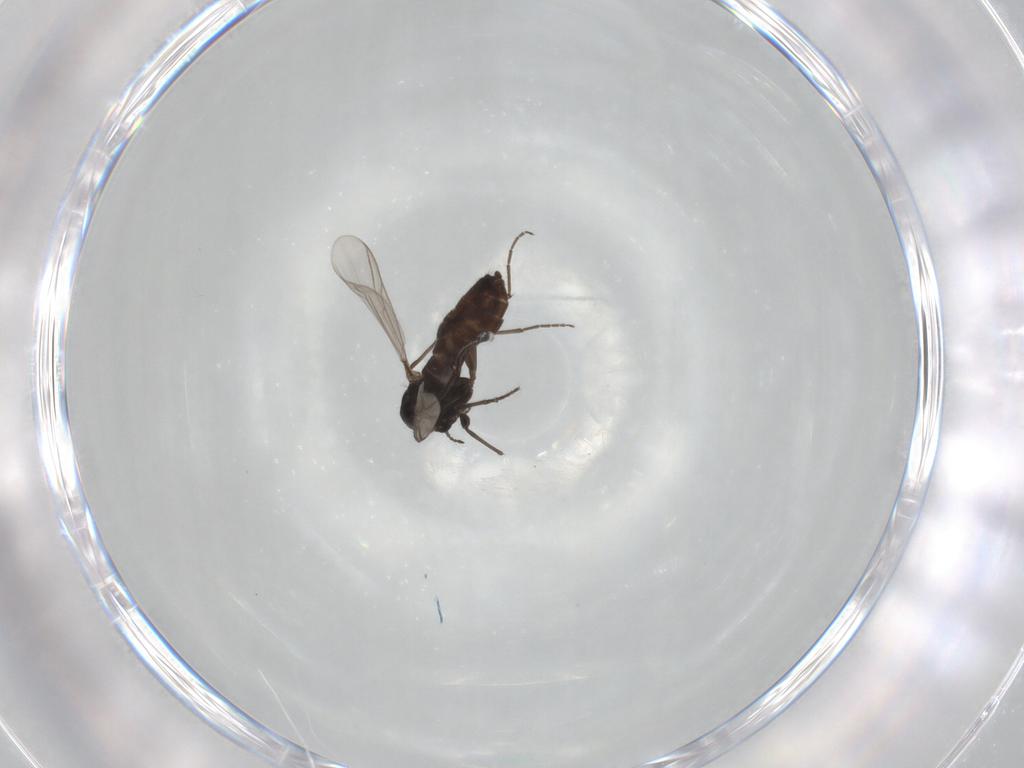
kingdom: Animalia
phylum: Arthropoda
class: Insecta
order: Diptera
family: Chironomidae
